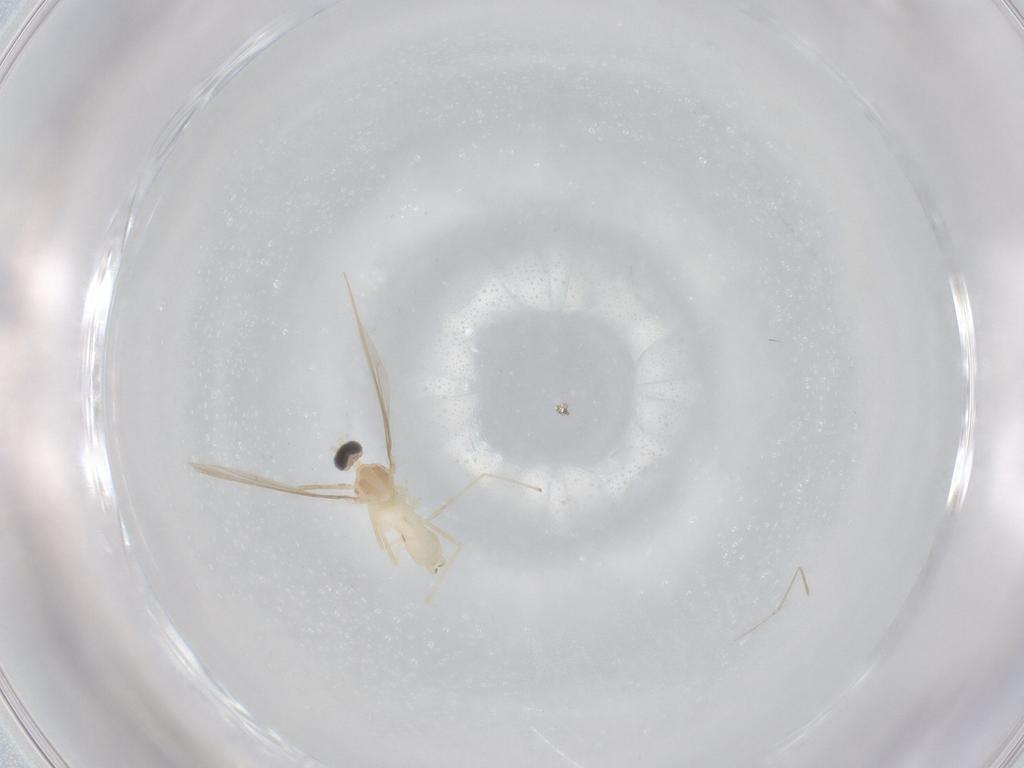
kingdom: Animalia
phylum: Arthropoda
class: Insecta
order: Diptera
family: Cecidomyiidae
